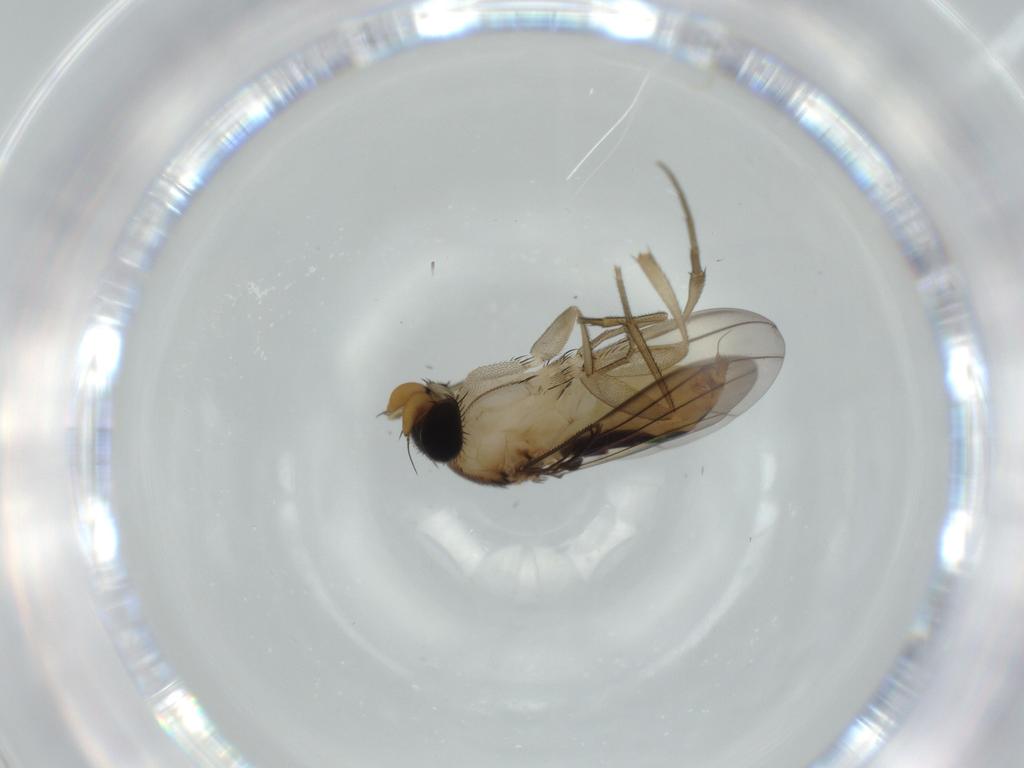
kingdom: Animalia
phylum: Arthropoda
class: Insecta
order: Diptera
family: Phoridae
